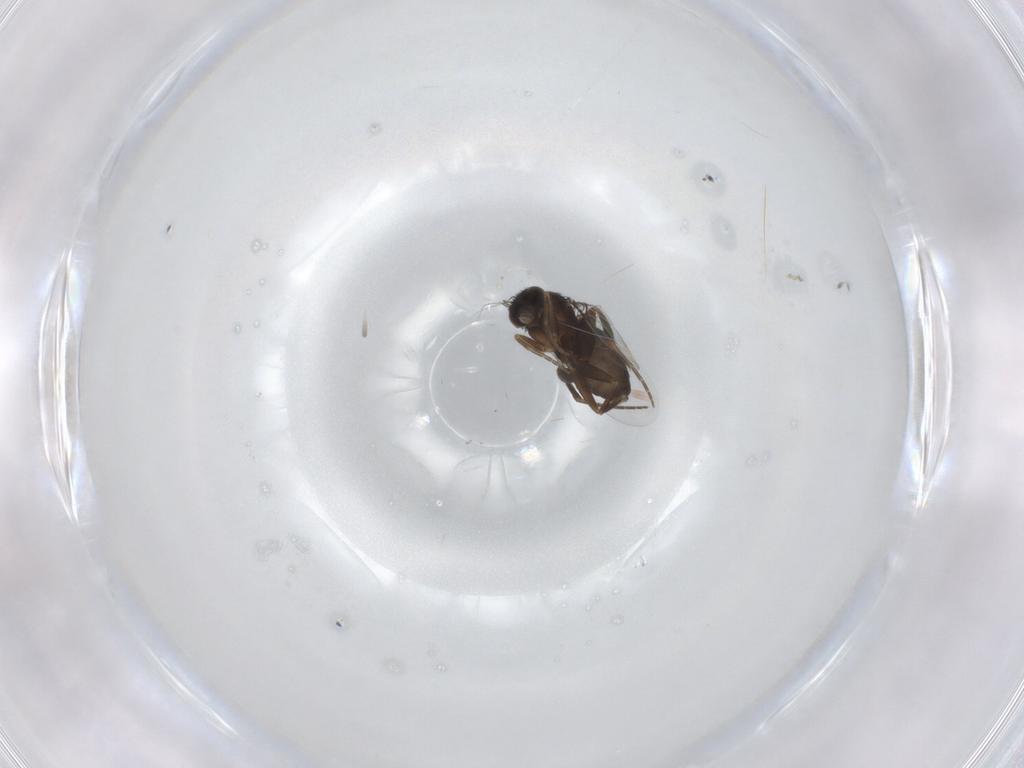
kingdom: Animalia
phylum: Arthropoda
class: Insecta
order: Diptera
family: Phoridae
